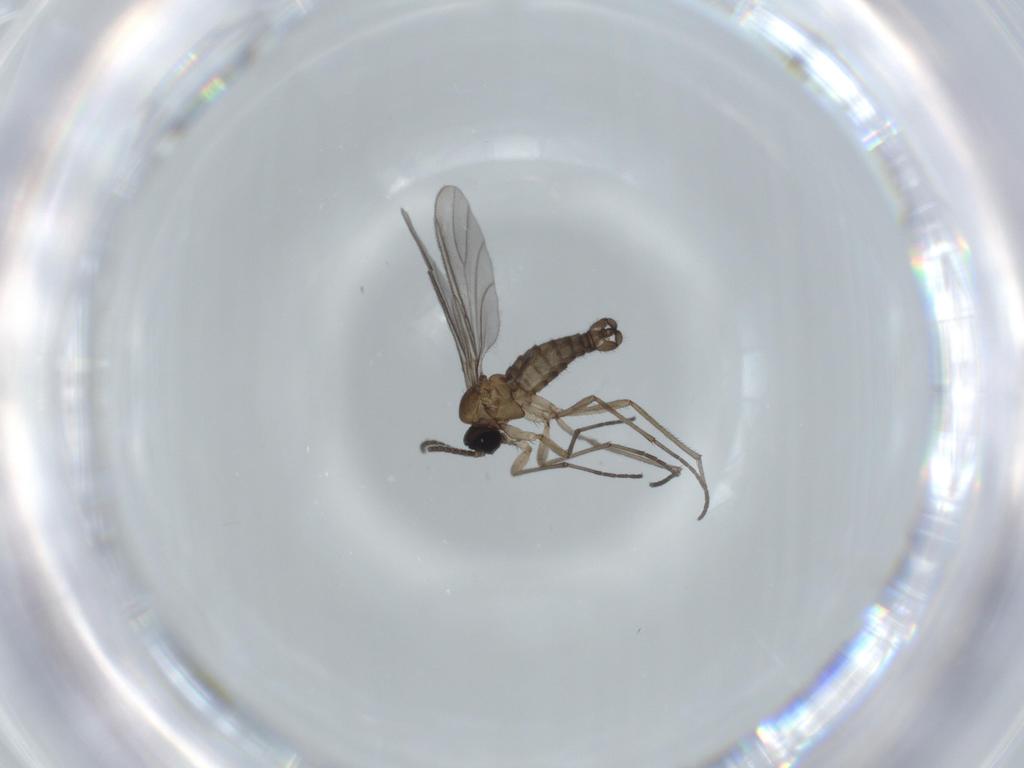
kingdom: Animalia
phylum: Arthropoda
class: Insecta
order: Diptera
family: Sciaridae
